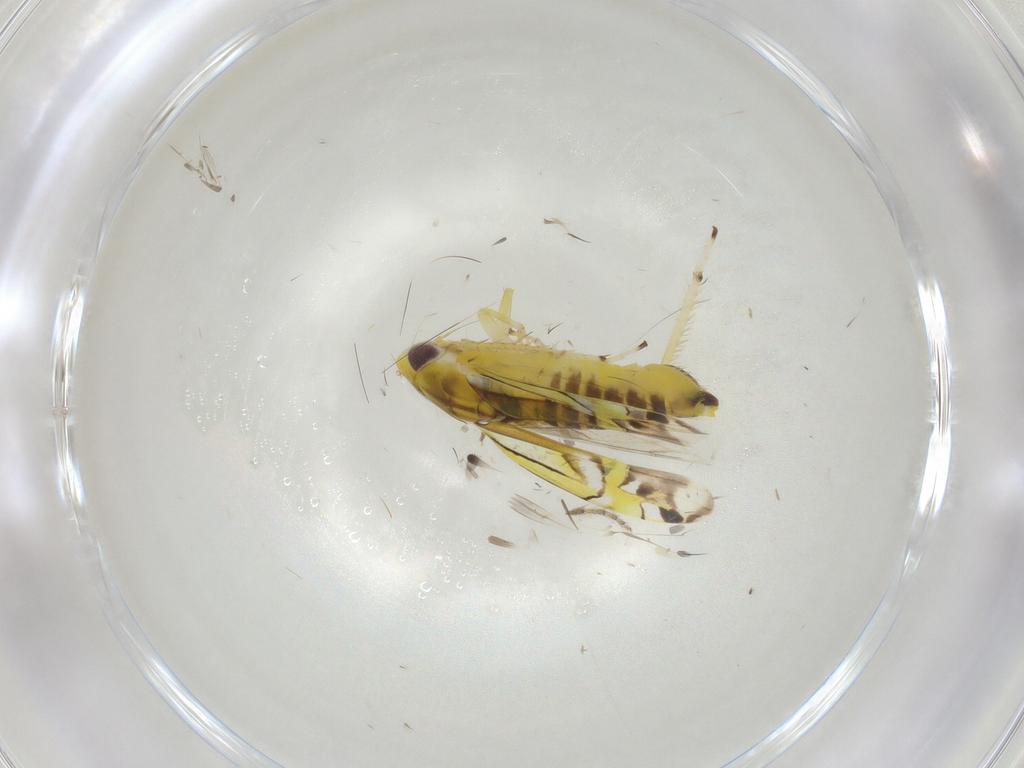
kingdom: Animalia
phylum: Arthropoda
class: Insecta
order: Hemiptera
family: Cicadellidae
